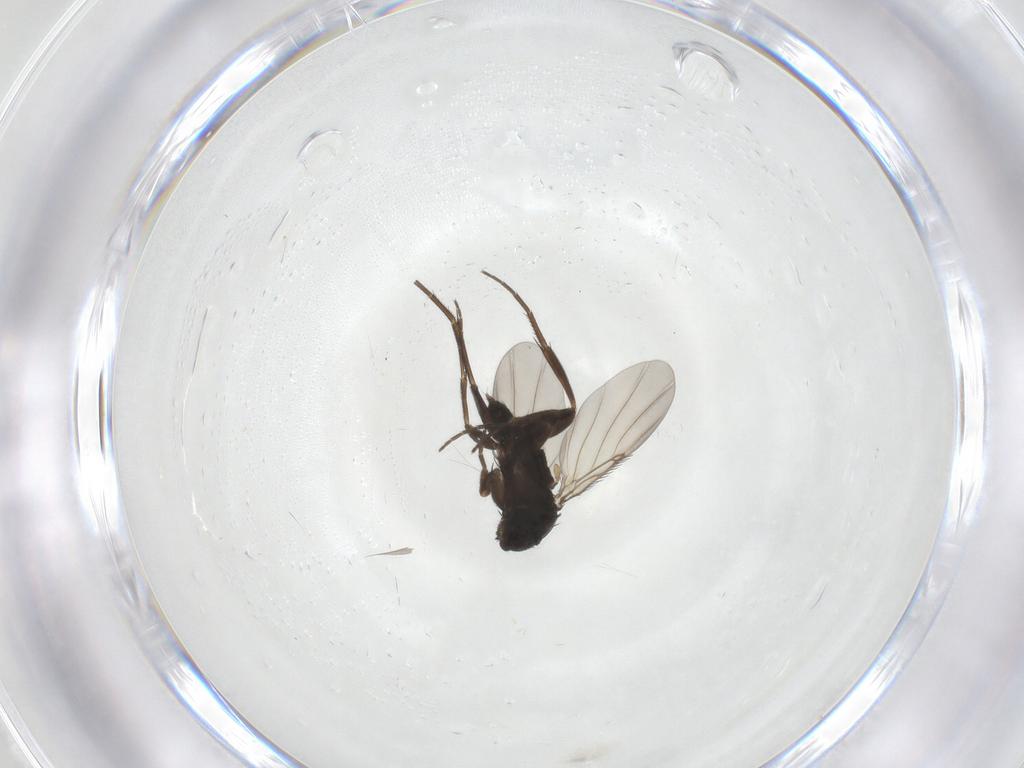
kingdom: Animalia
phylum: Arthropoda
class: Insecta
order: Diptera
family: Phoridae
